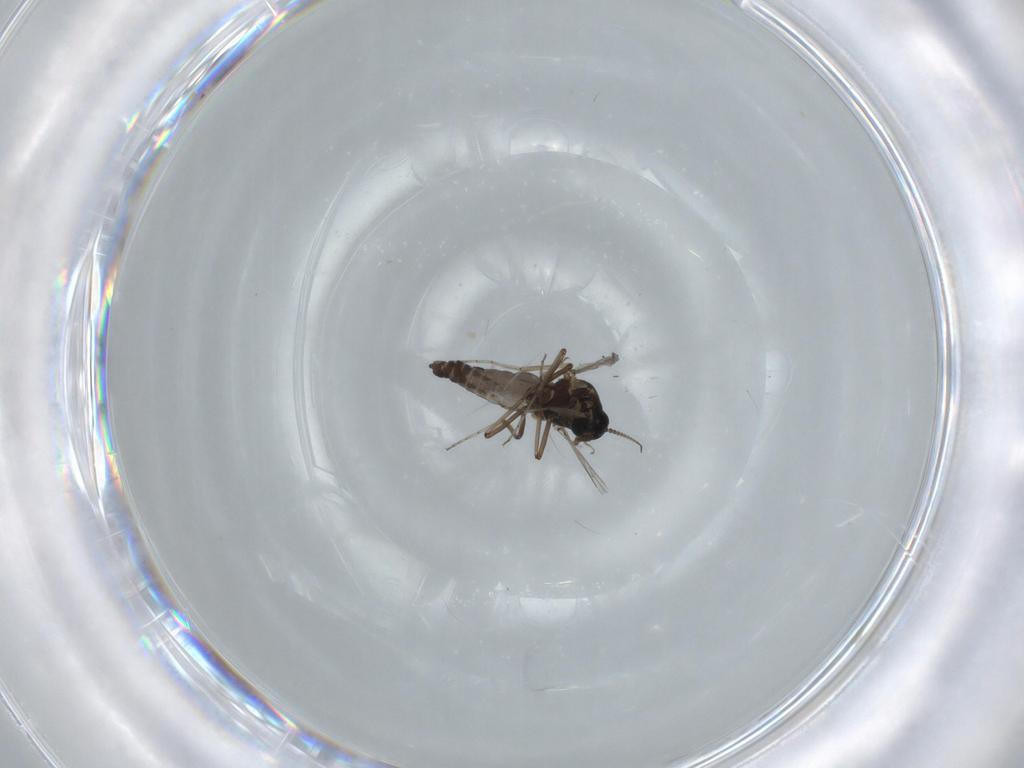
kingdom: Animalia
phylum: Arthropoda
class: Insecta
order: Diptera
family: Ceratopogonidae
